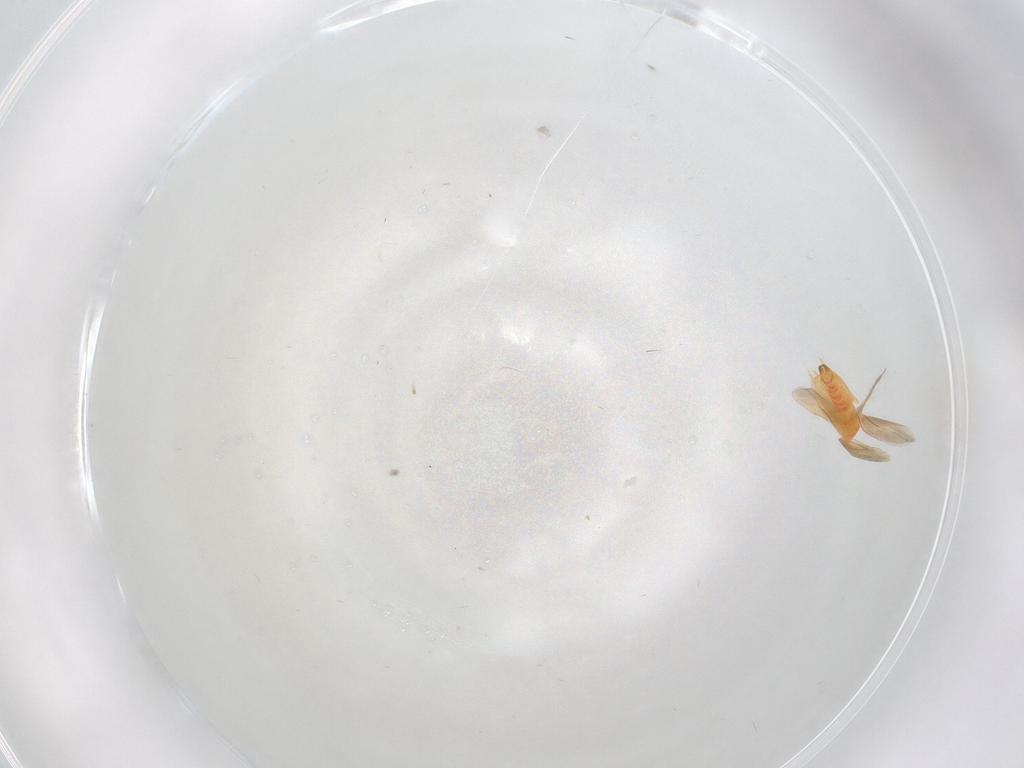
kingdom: Animalia
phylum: Arthropoda
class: Insecta
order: Hemiptera
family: Aleyrodidae
